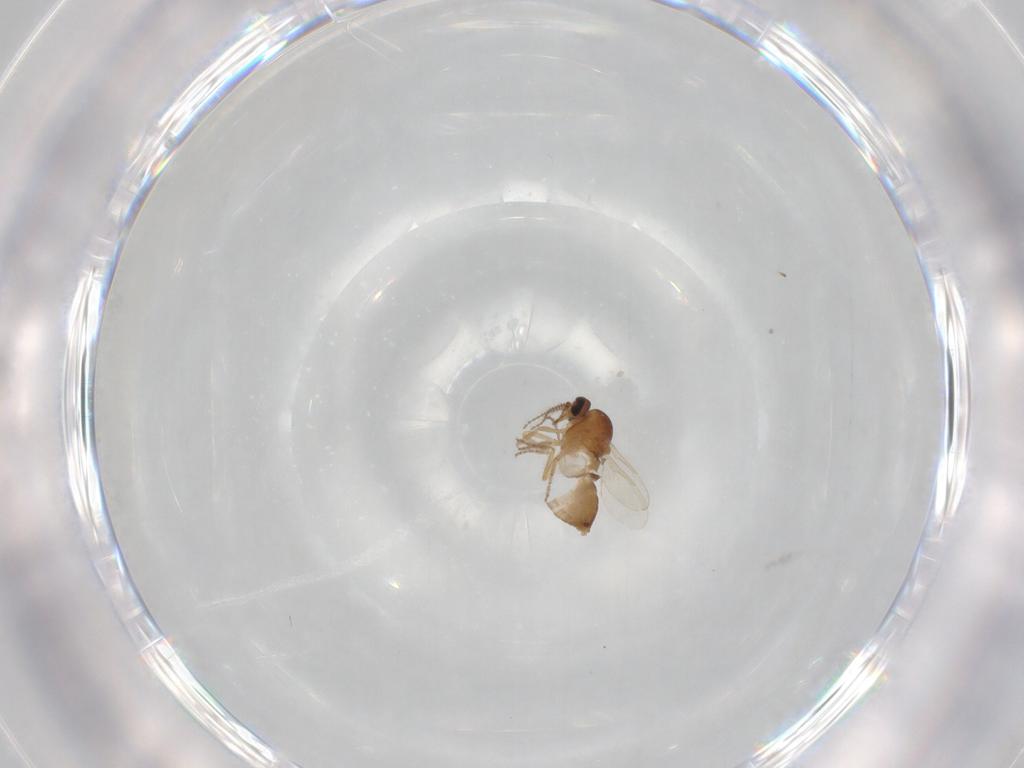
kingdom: Animalia
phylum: Arthropoda
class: Insecta
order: Diptera
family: Ceratopogonidae
